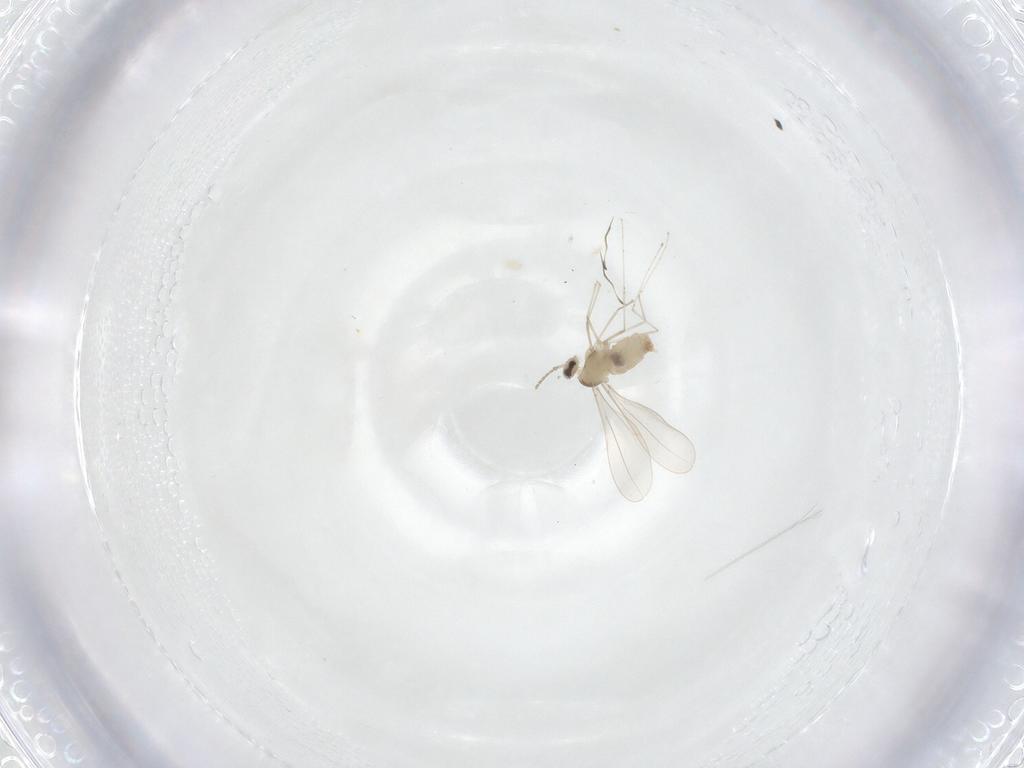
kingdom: Animalia
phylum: Arthropoda
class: Insecta
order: Diptera
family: Cecidomyiidae
